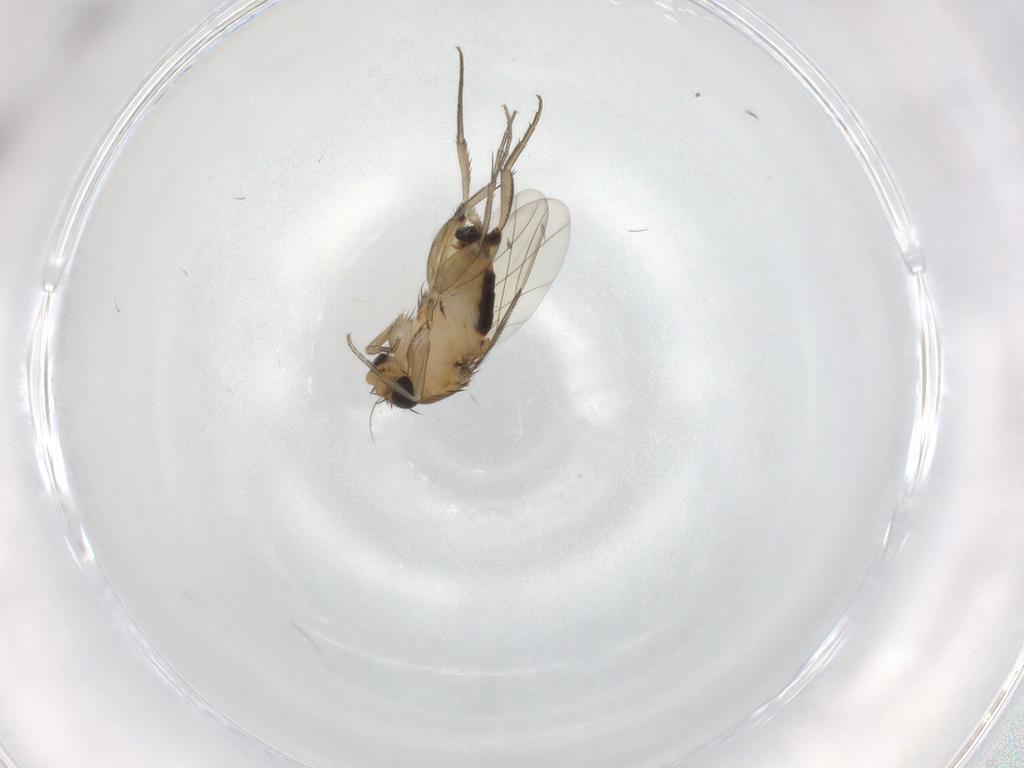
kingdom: Animalia
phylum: Arthropoda
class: Insecta
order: Diptera
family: Phoridae
